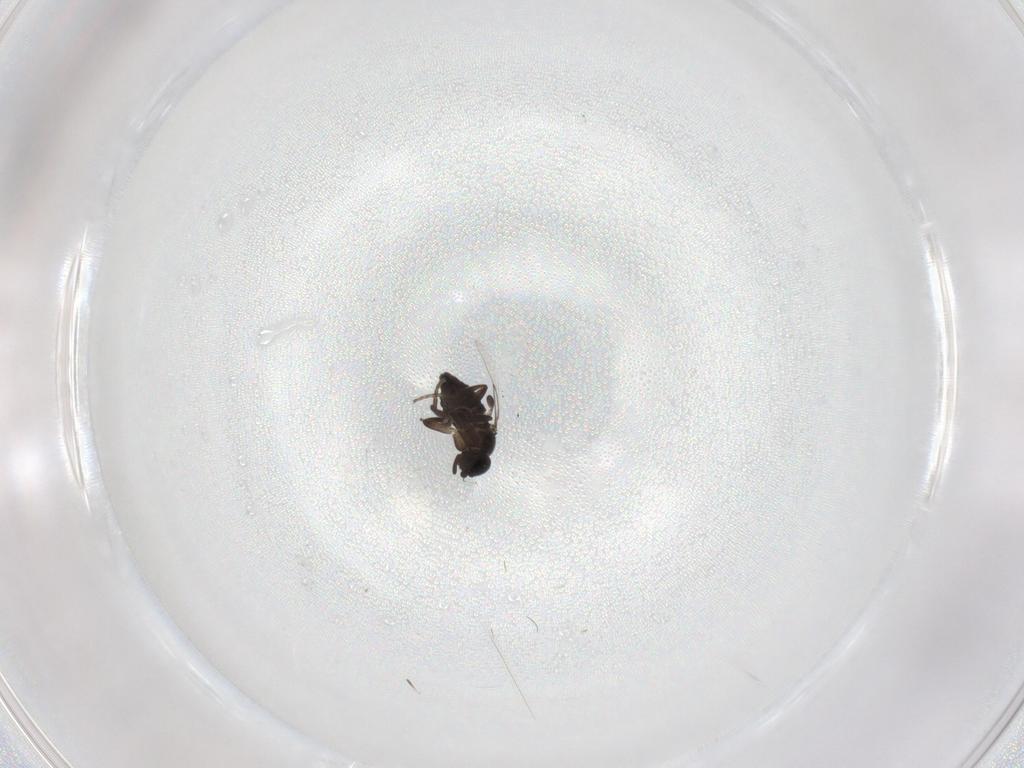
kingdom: Animalia
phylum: Arthropoda
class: Insecta
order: Diptera
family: Phoridae
